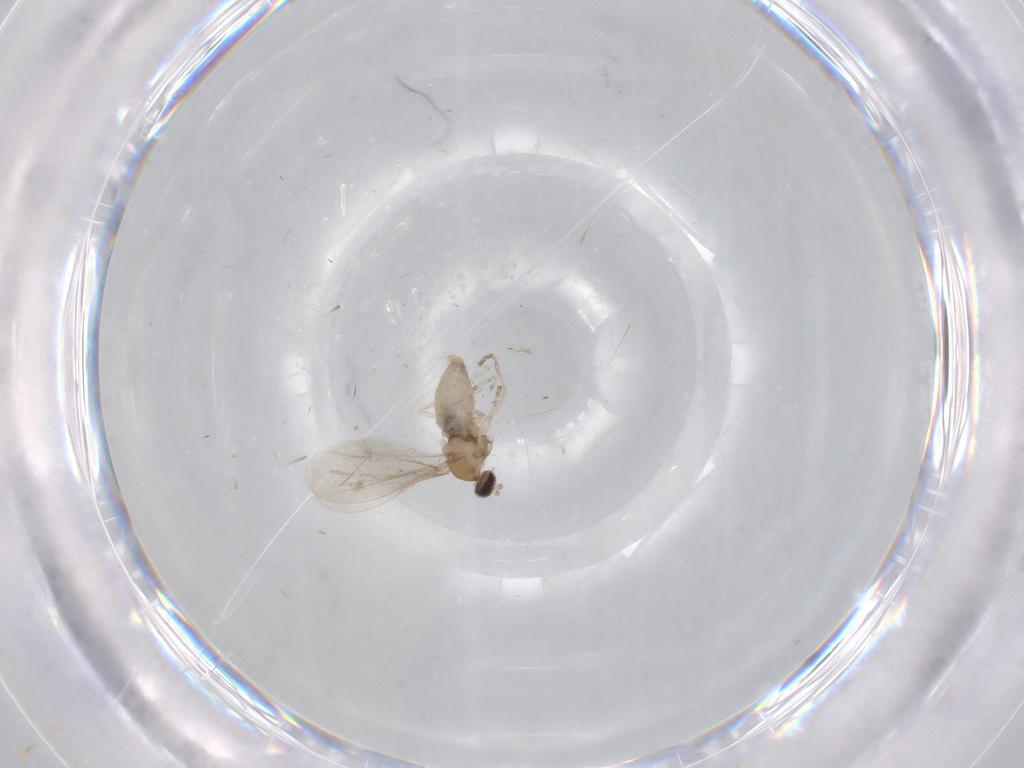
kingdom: Animalia
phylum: Arthropoda
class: Insecta
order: Diptera
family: Cecidomyiidae
